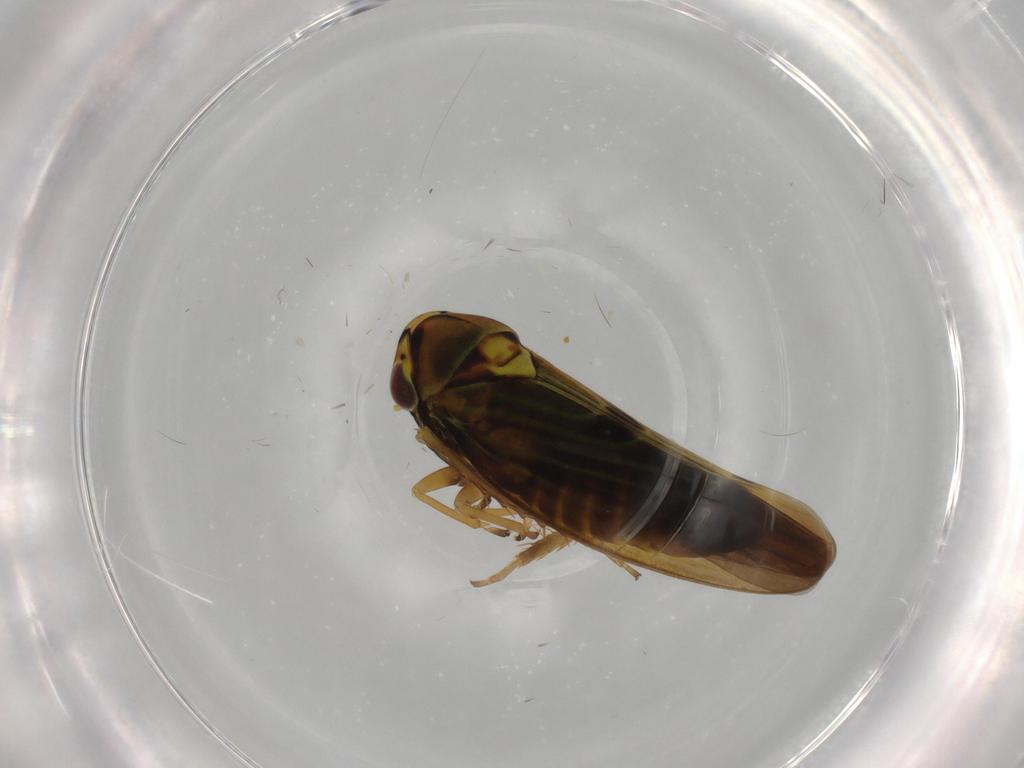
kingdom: Animalia
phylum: Arthropoda
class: Insecta
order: Hemiptera
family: Cicadellidae
